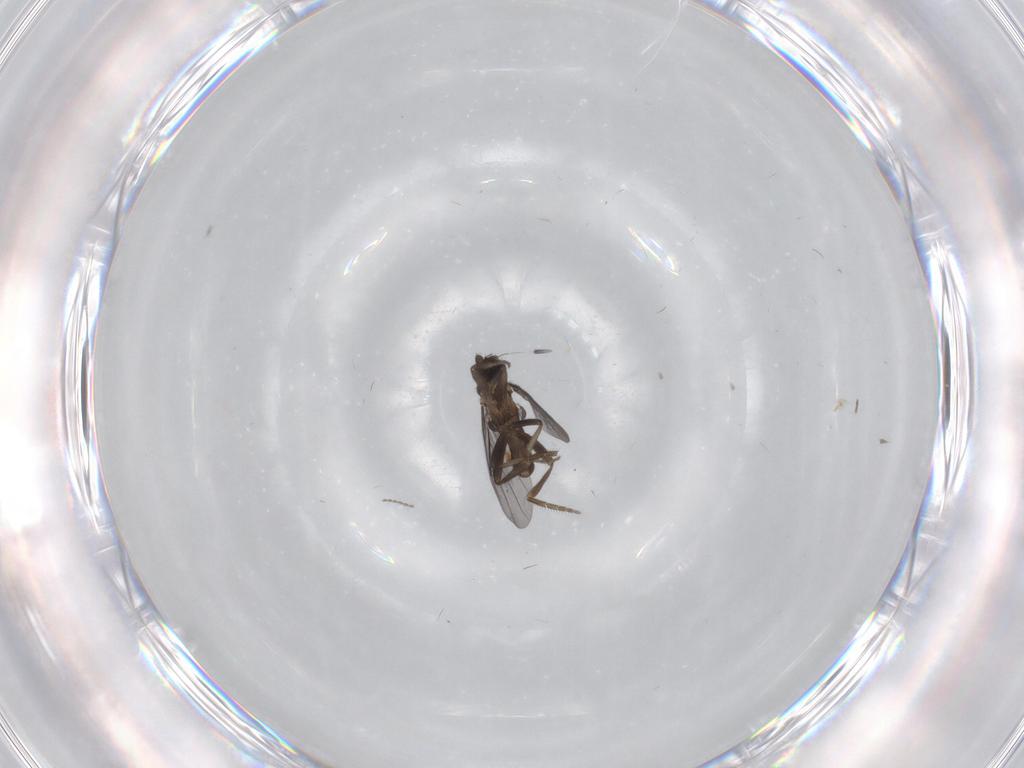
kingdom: Animalia
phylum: Arthropoda
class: Insecta
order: Diptera
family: Cecidomyiidae
